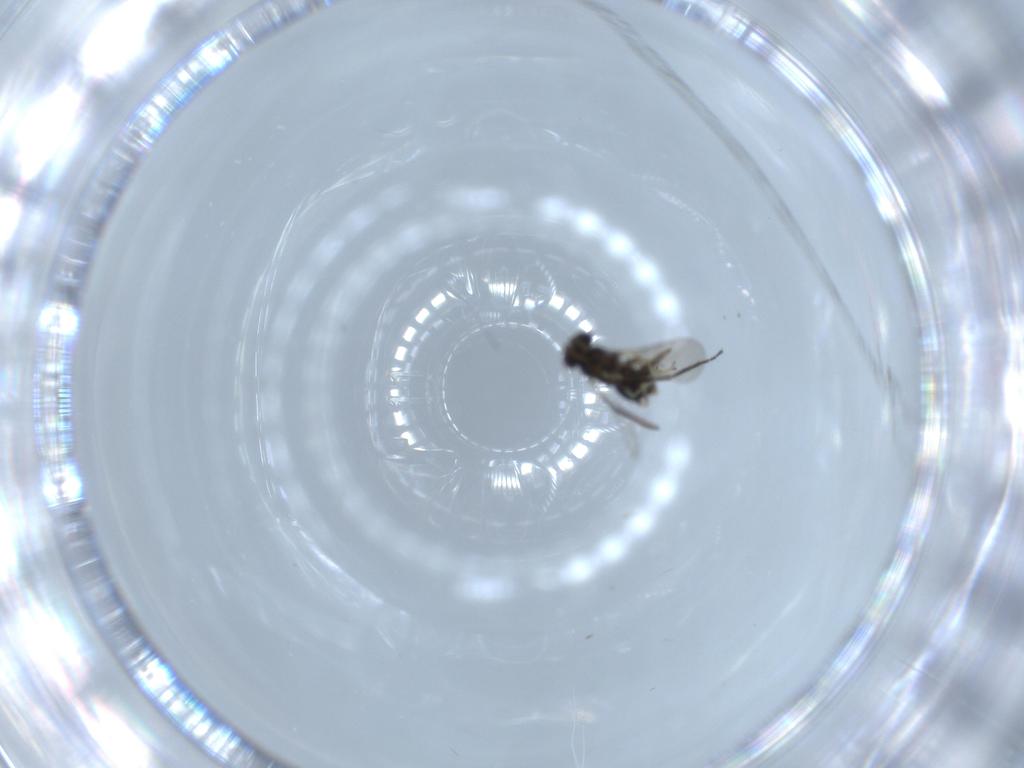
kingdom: Animalia
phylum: Arthropoda
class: Insecta
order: Diptera
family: Sciaridae
